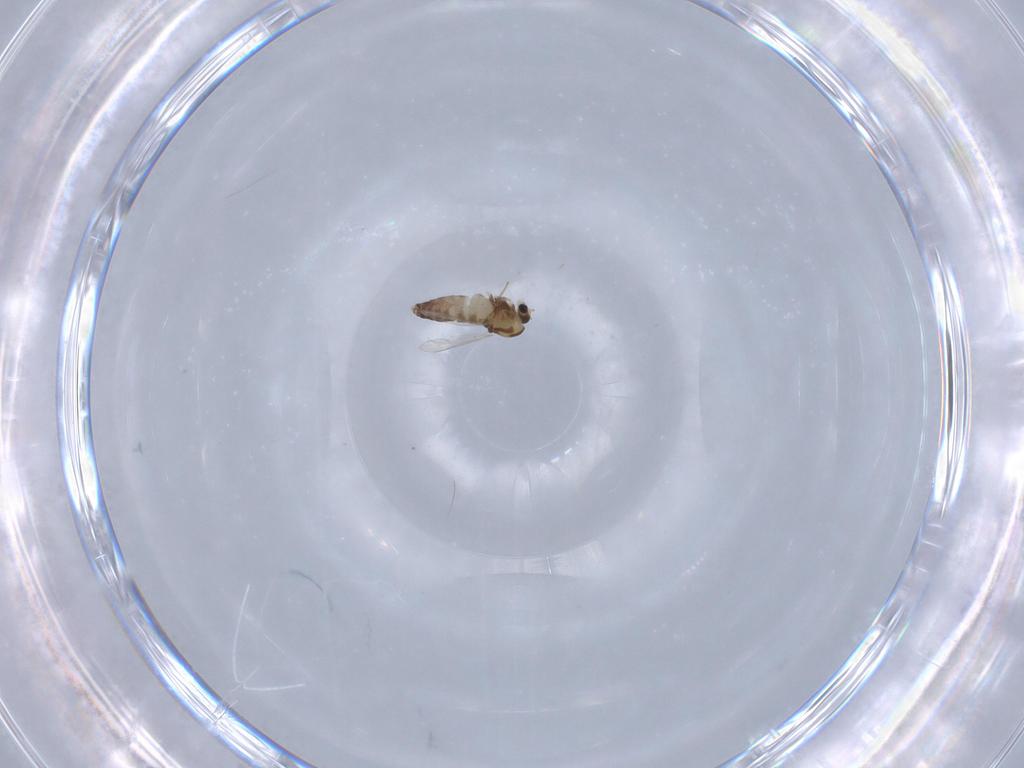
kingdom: Animalia
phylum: Arthropoda
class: Insecta
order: Diptera
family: Chironomidae
